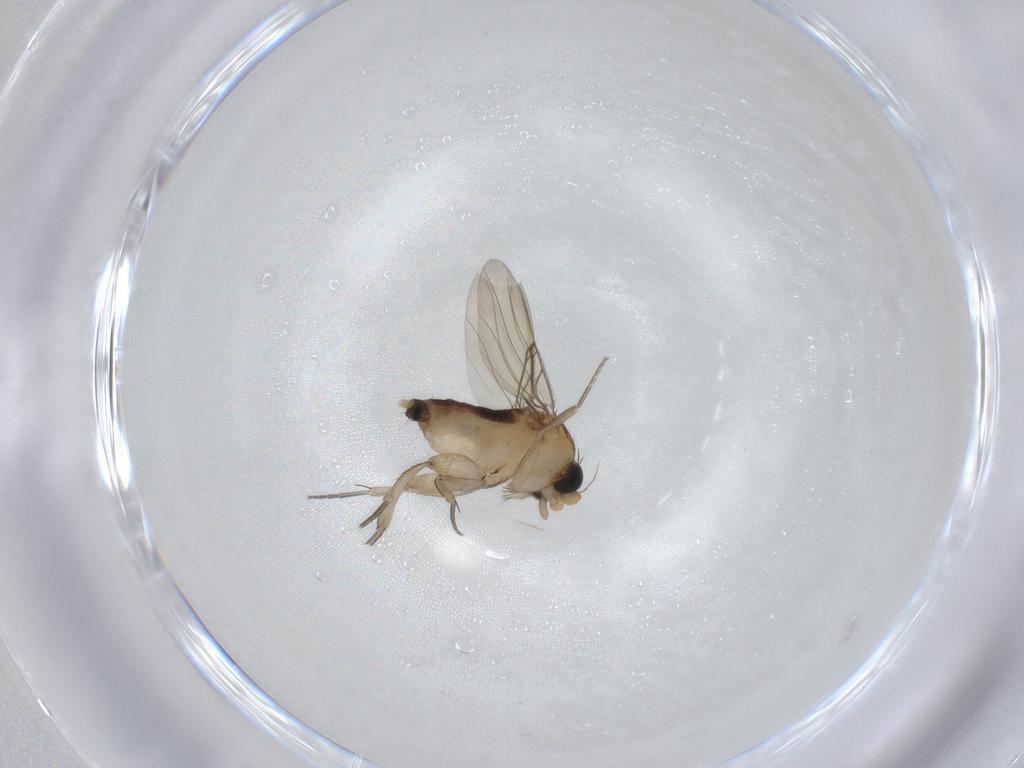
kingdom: Animalia
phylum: Arthropoda
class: Insecta
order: Diptera
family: Phoridae
